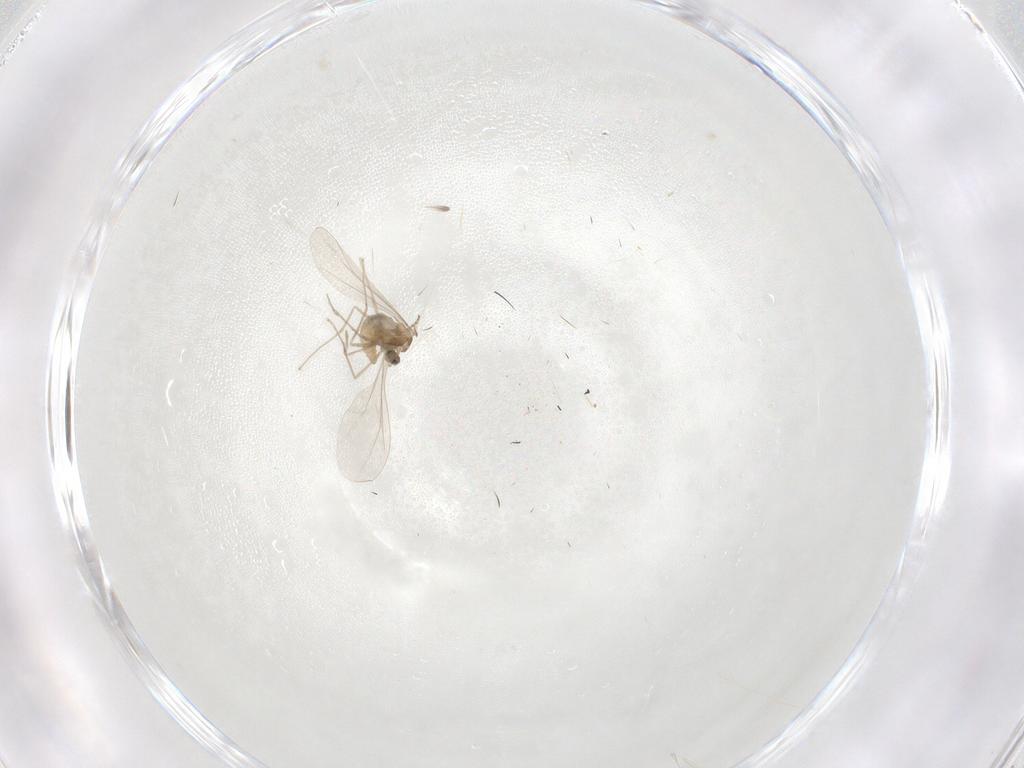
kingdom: Animalia
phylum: Arthropoda
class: Insecta
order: Diptera
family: Cecidomyiidae
